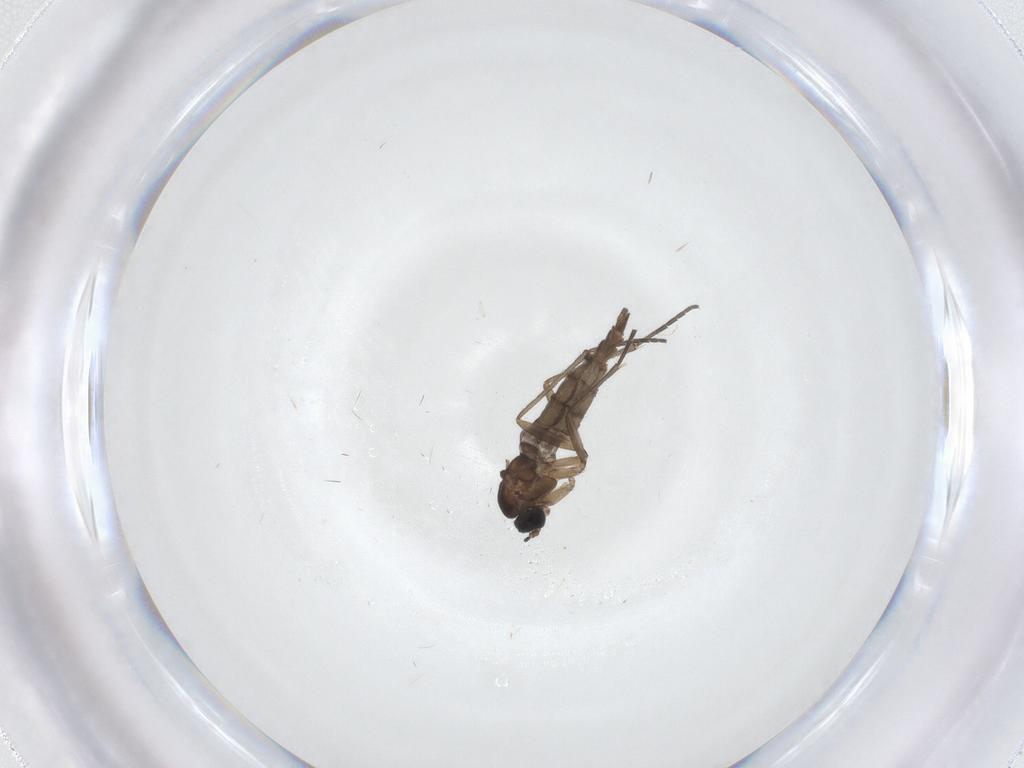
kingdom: Animalia
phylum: Arthropoda
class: Insecta
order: Diptera
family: Sciaridae
